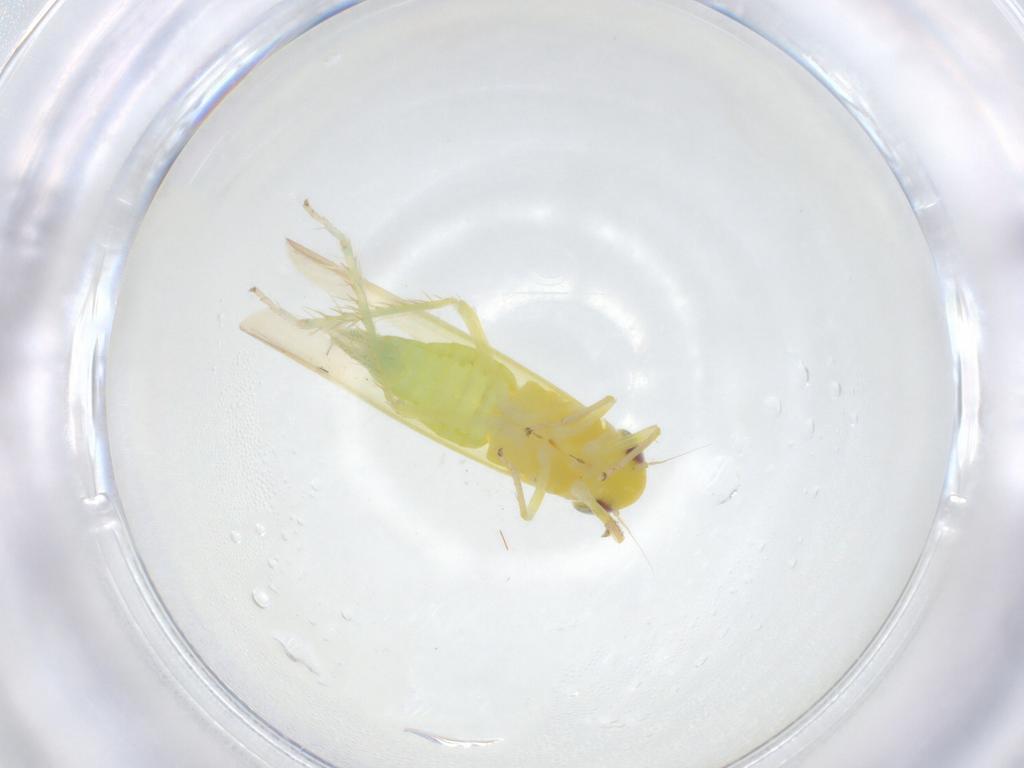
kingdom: Animalia
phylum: Arthropoda
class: Insecta
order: Hemiptera
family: Cicadellidae
